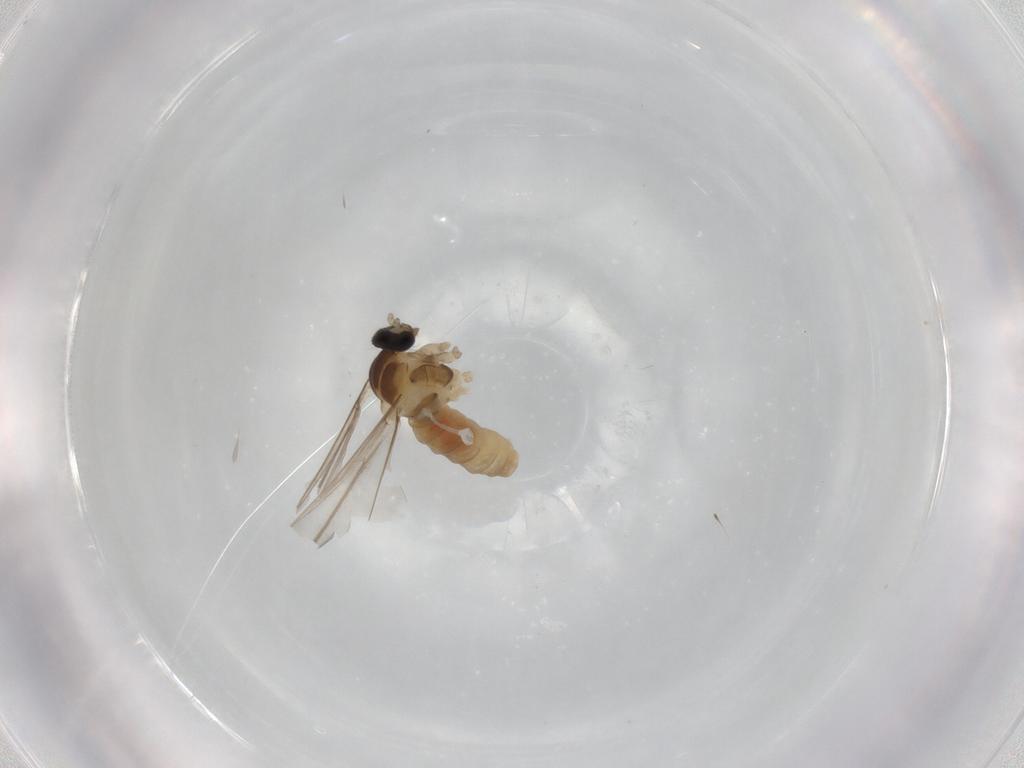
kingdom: Animalia
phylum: Arthropoda
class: Insecta
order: Diptera
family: Cecidomyiidae
